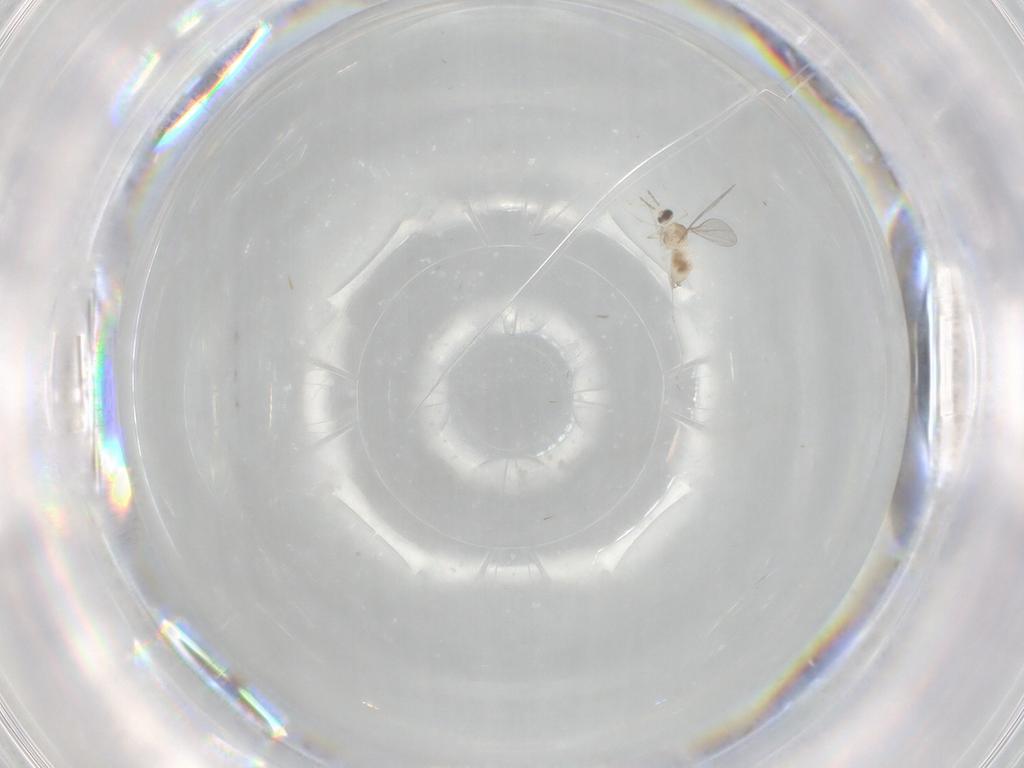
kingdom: Animalia
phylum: Arthropoda
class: Insecta
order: Diptera
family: Cecidomyiidae
